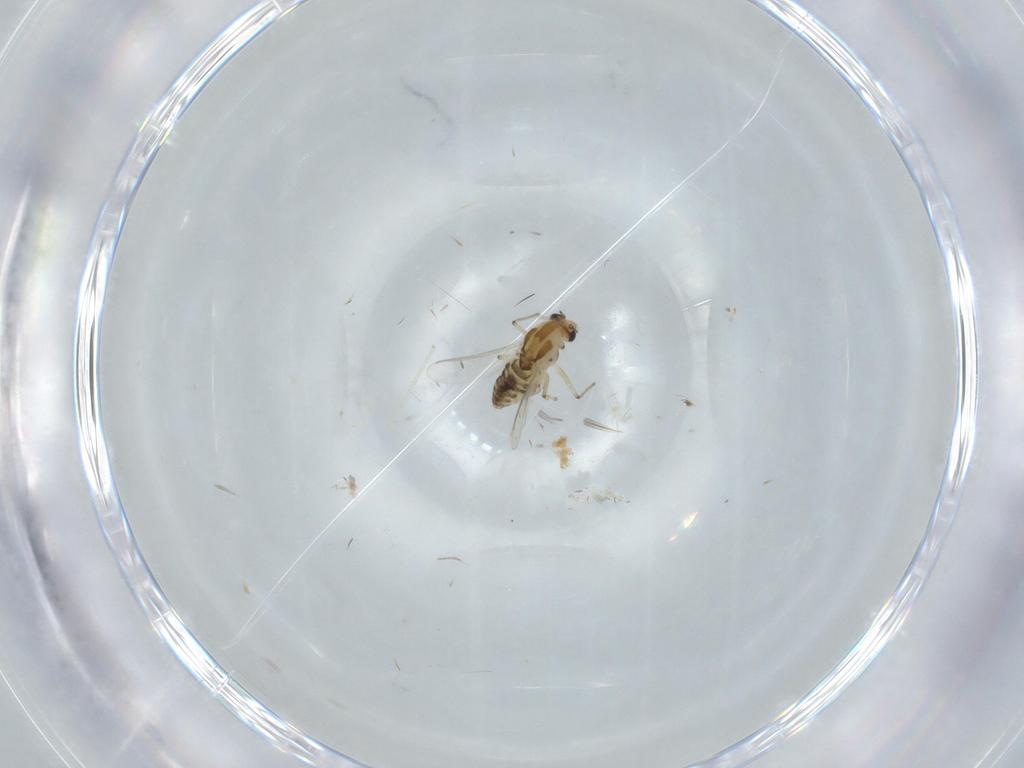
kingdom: Animalia
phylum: Arthropoda
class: Insecta
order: Diptera
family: Chironomidae
